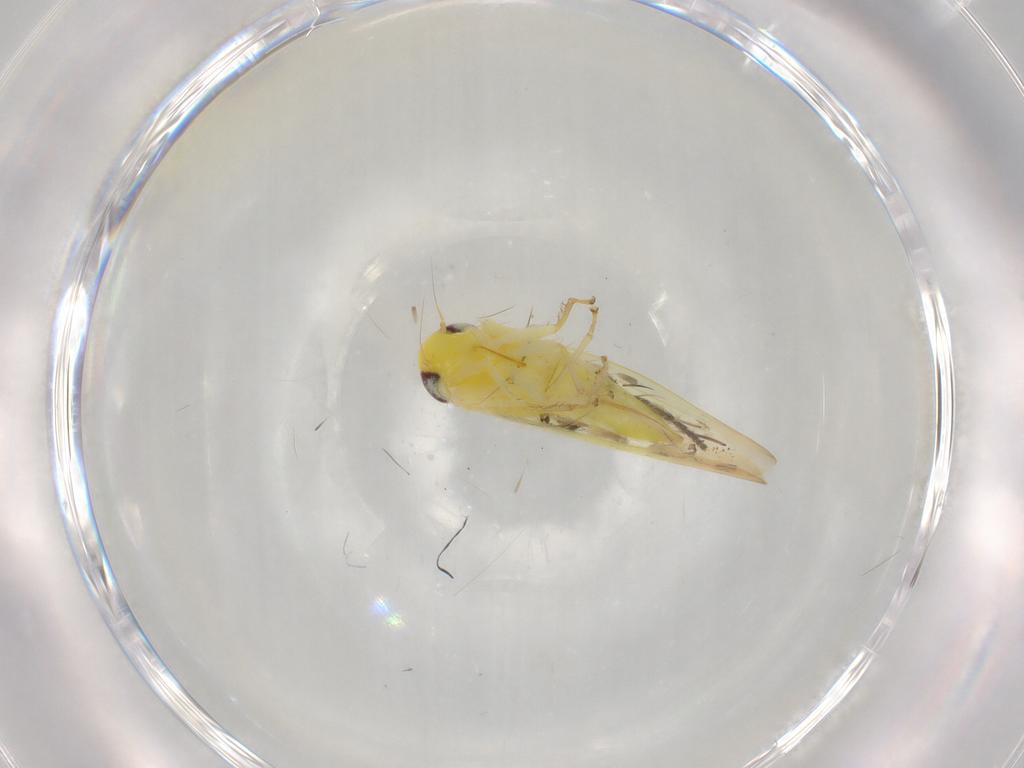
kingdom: Animalia
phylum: Arthropoda
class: Insecta
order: Hemiptera
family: Cicadellidae
